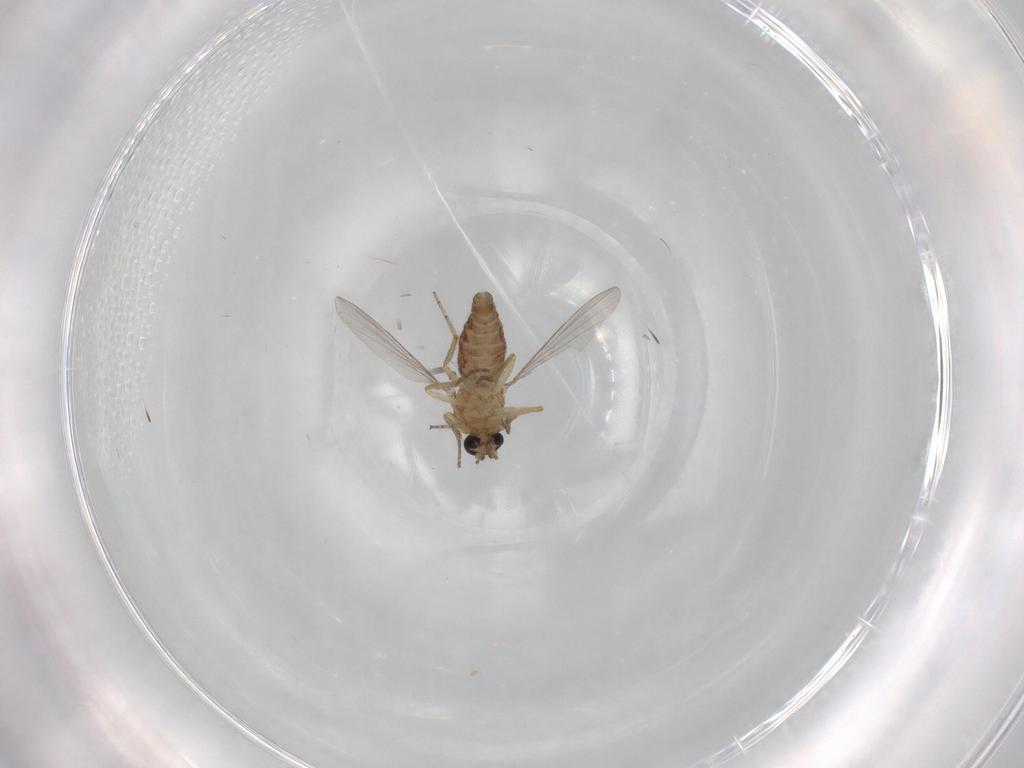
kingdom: Animalia
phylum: Arthropoda
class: Insecta
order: Diptera
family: Ceratopogonidae
